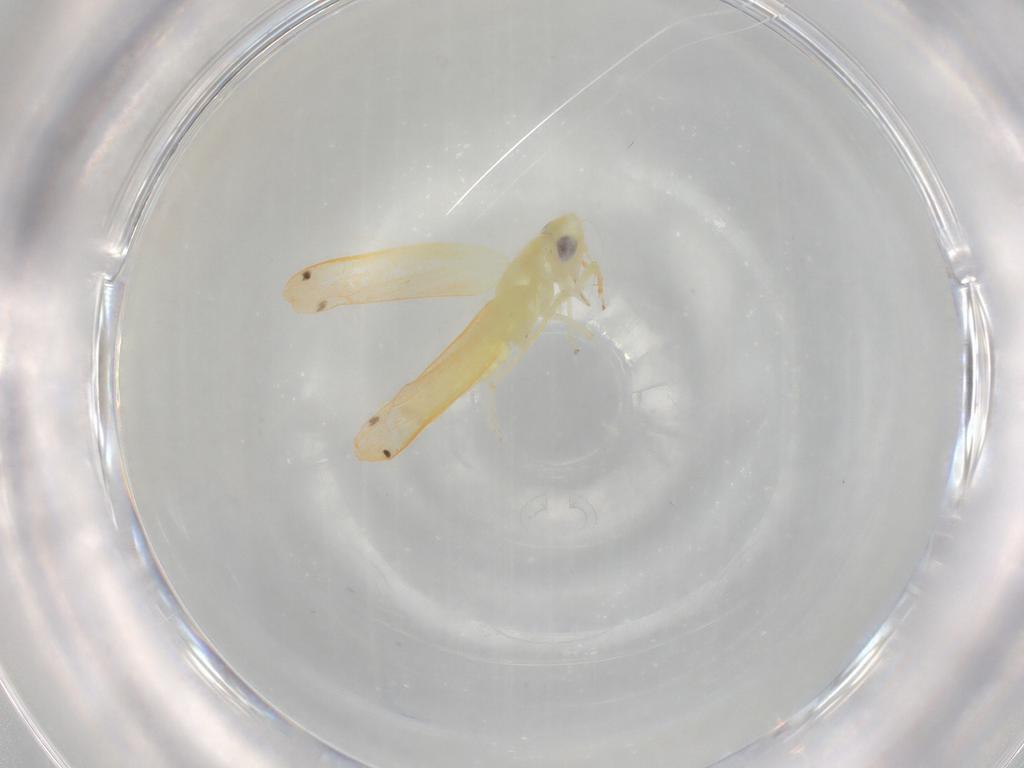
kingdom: Animalia
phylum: Arthropoda
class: Insecta
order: Hemiptera
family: Cicadellidae
